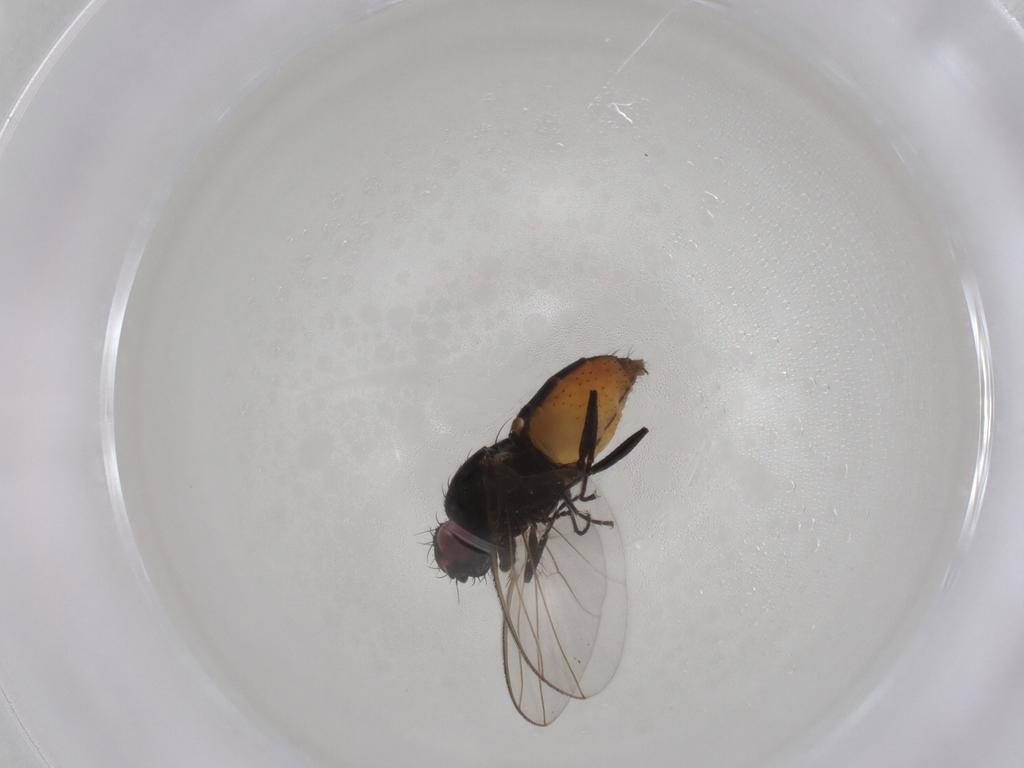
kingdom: Animalia
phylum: Arthropoda
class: Insecta
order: Diptera
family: Carnidae
